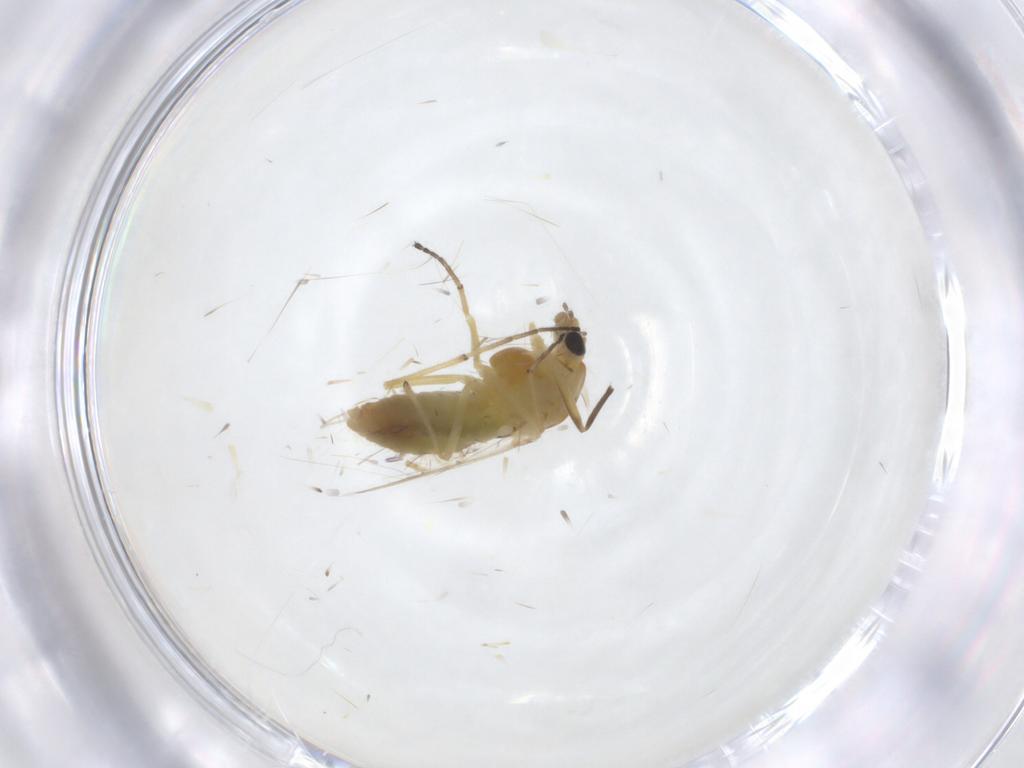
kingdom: Animalia
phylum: Arthropoda
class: Insecta
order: Diptera
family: Chironomidae
